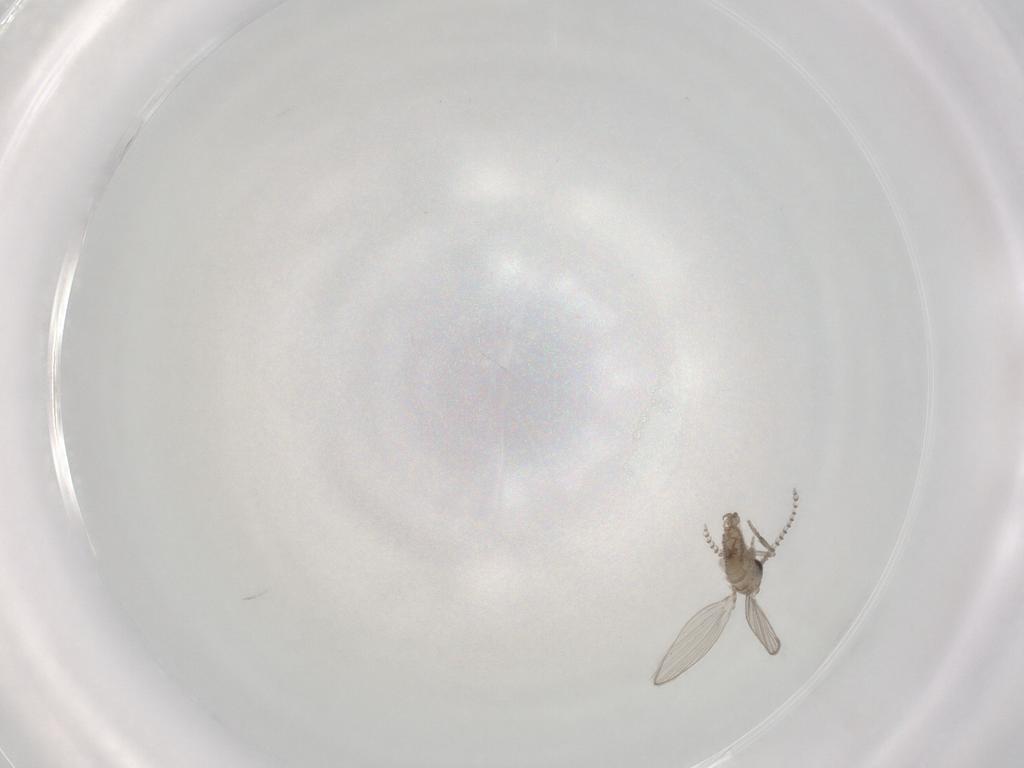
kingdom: Animalia
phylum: Arthropoda
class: Insecta
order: Diptera
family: Psychodidae
